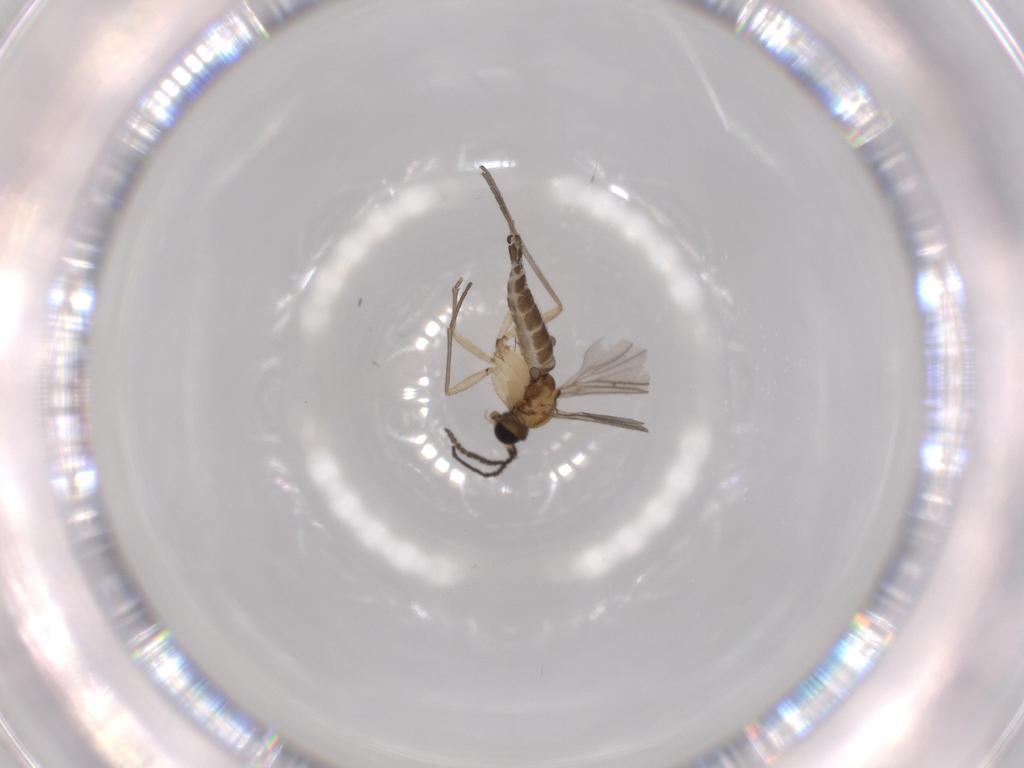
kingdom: Animalia
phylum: Arthropoda
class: Insecta
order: Diptera
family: Sciaridae
